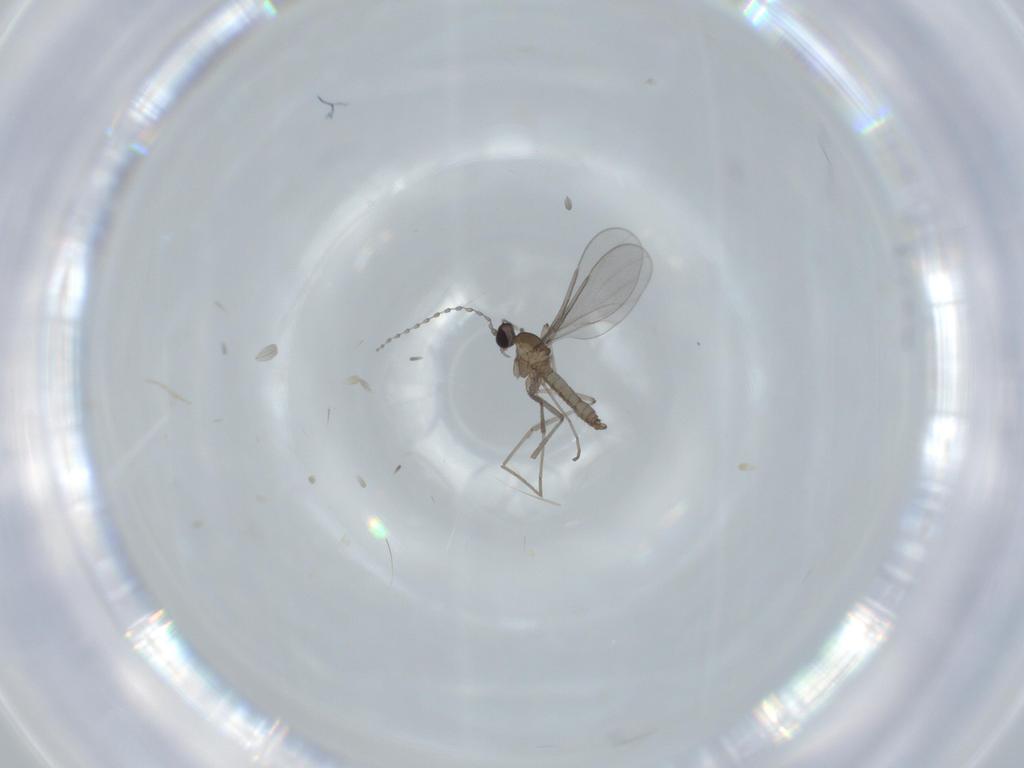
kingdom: Animalia
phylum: Arthropoda
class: Insecta
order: Diptera
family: Cecidomyiidae
